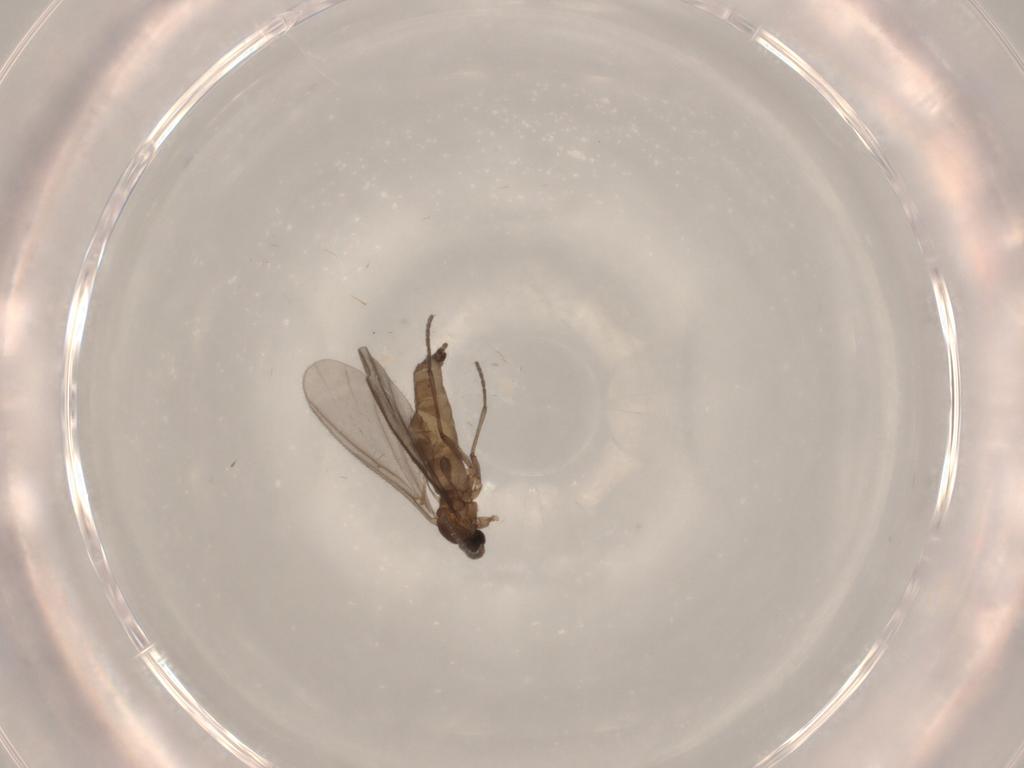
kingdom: Animalia
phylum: Arthropoda
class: Insecta
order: Diptera
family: Sciaridae
